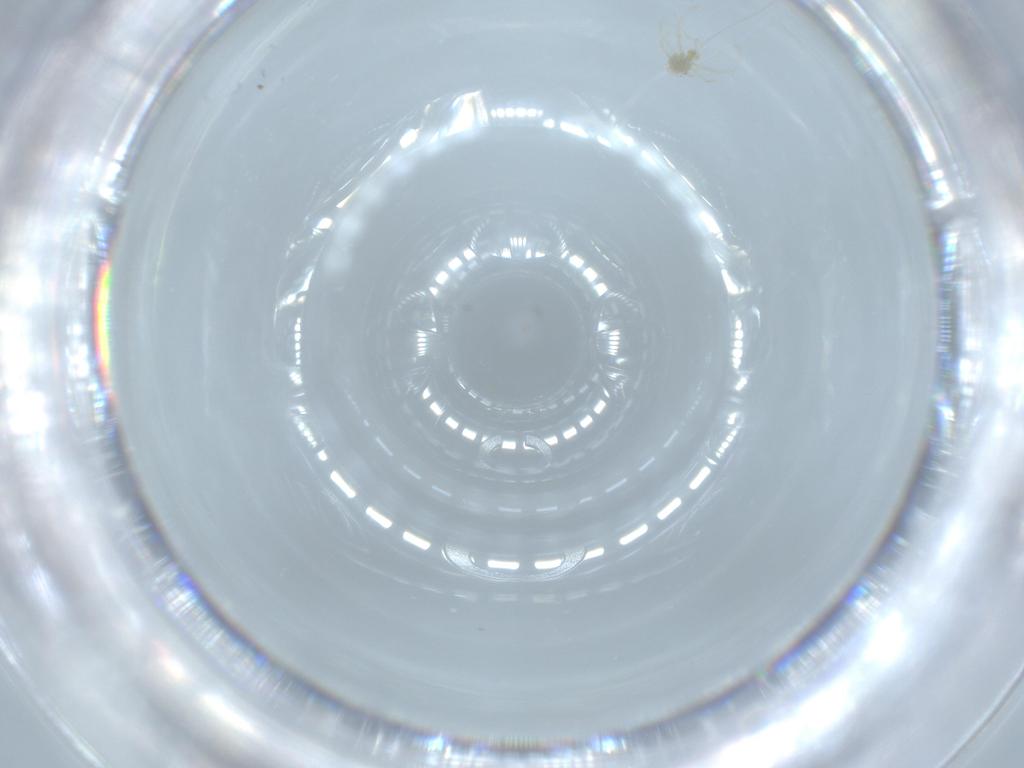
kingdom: Animalia
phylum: Arthropoda
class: Arachnida
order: Trombidiformes
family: Erythraeidae
